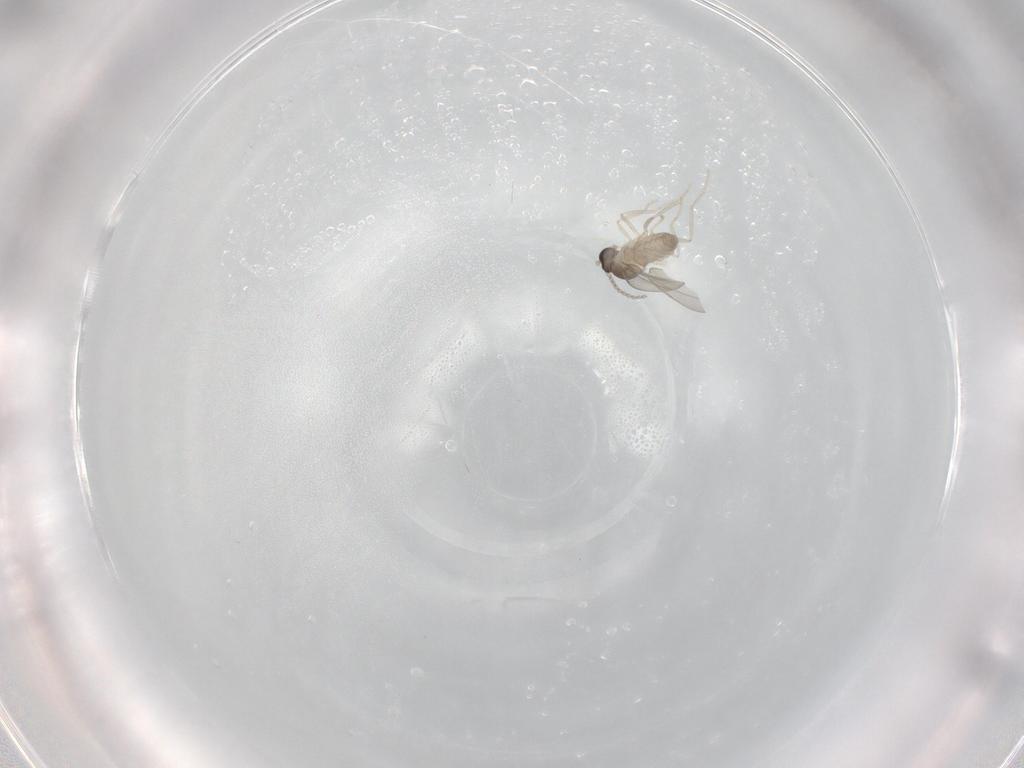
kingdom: Animalia
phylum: Arthropoda
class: Insecta
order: Diptera
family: Cecidomyiidae
